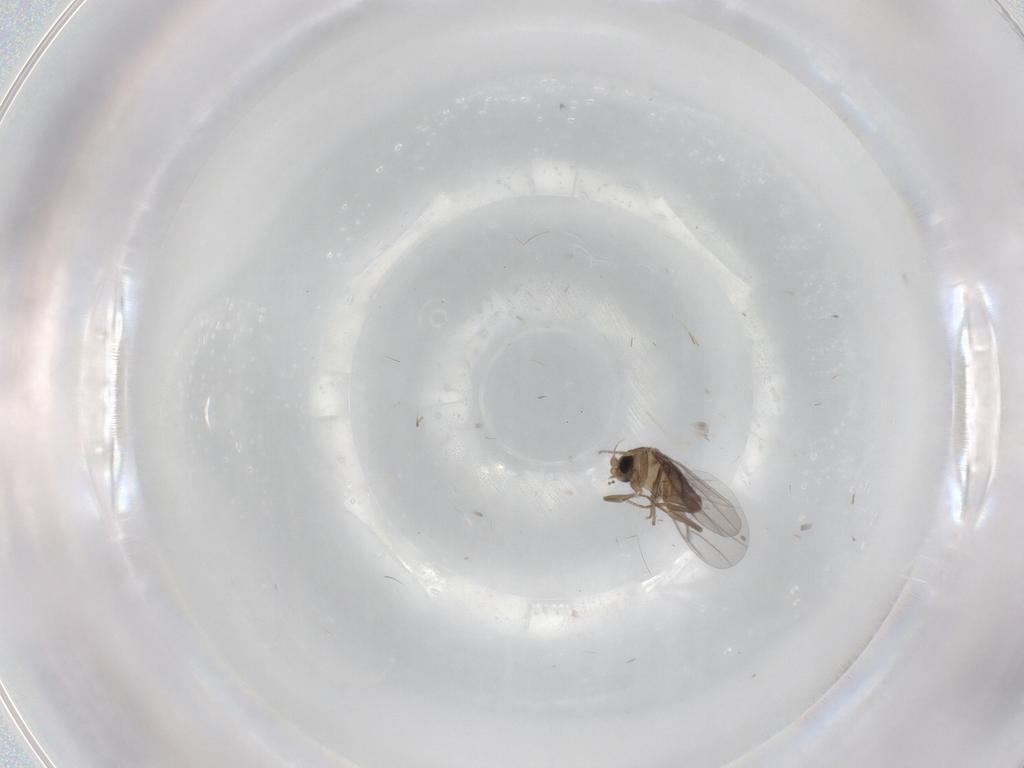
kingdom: Animalia
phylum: Arthropoda
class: Insecta
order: Diptera
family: Cecidomyiidae
